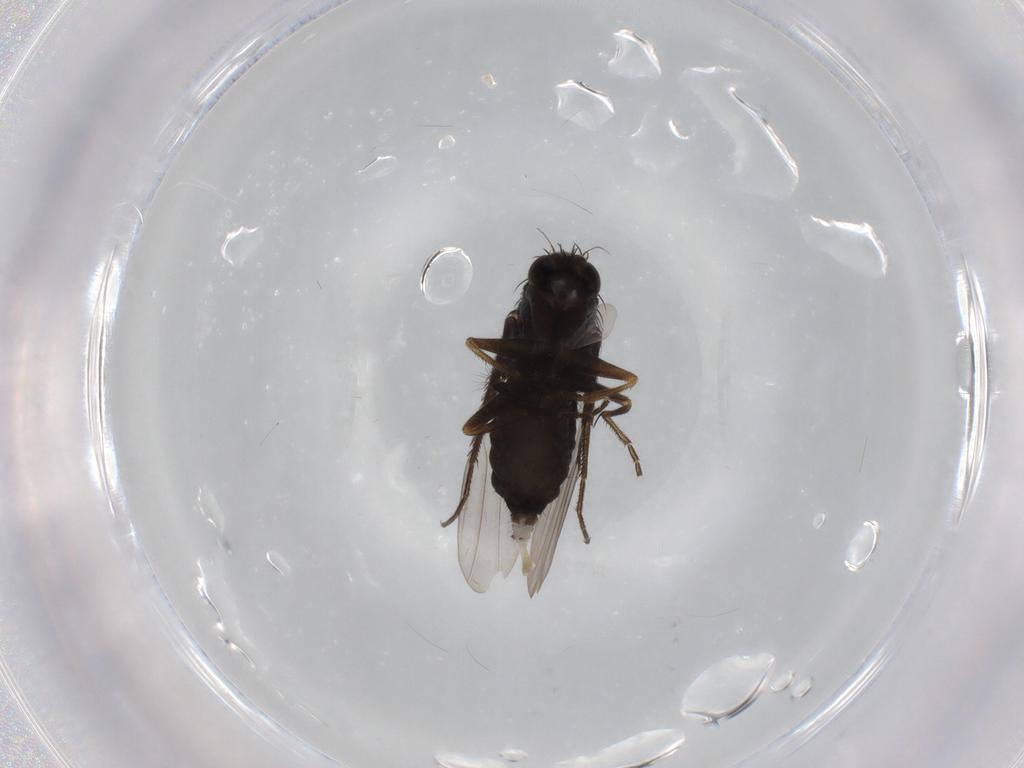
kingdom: Animalia
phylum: Arthropoda
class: Insecta
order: Diptera
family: Phoridae
